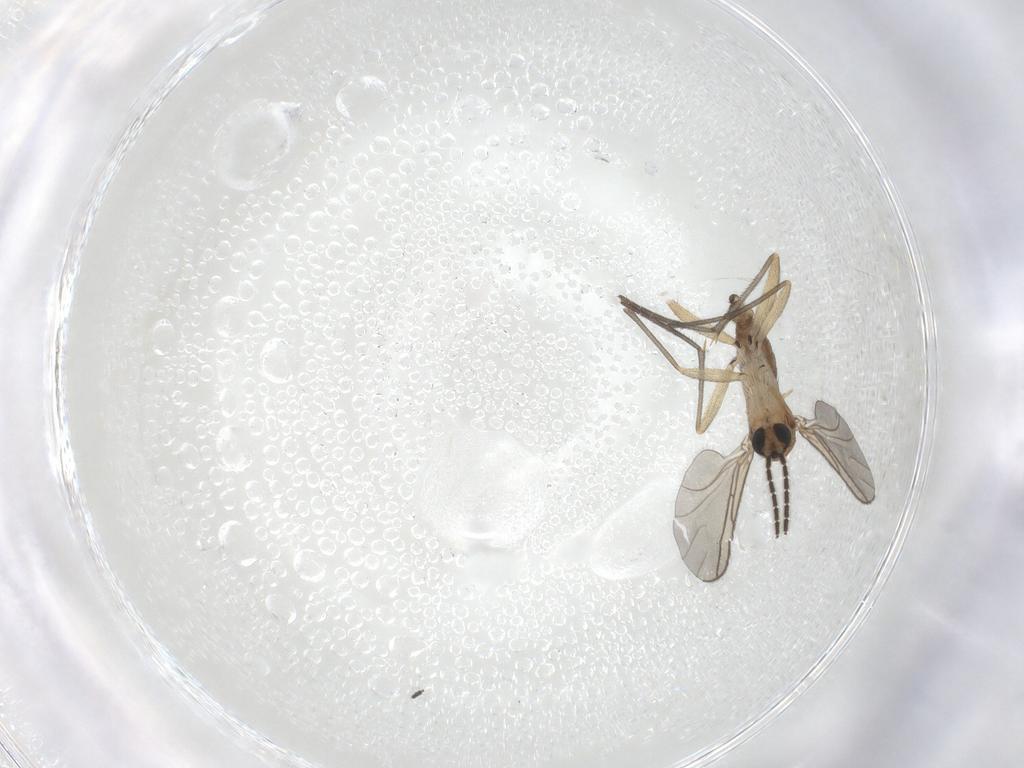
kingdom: Animalia
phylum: Arthropoda
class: Insecta
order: Diptera
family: Sciaridae
